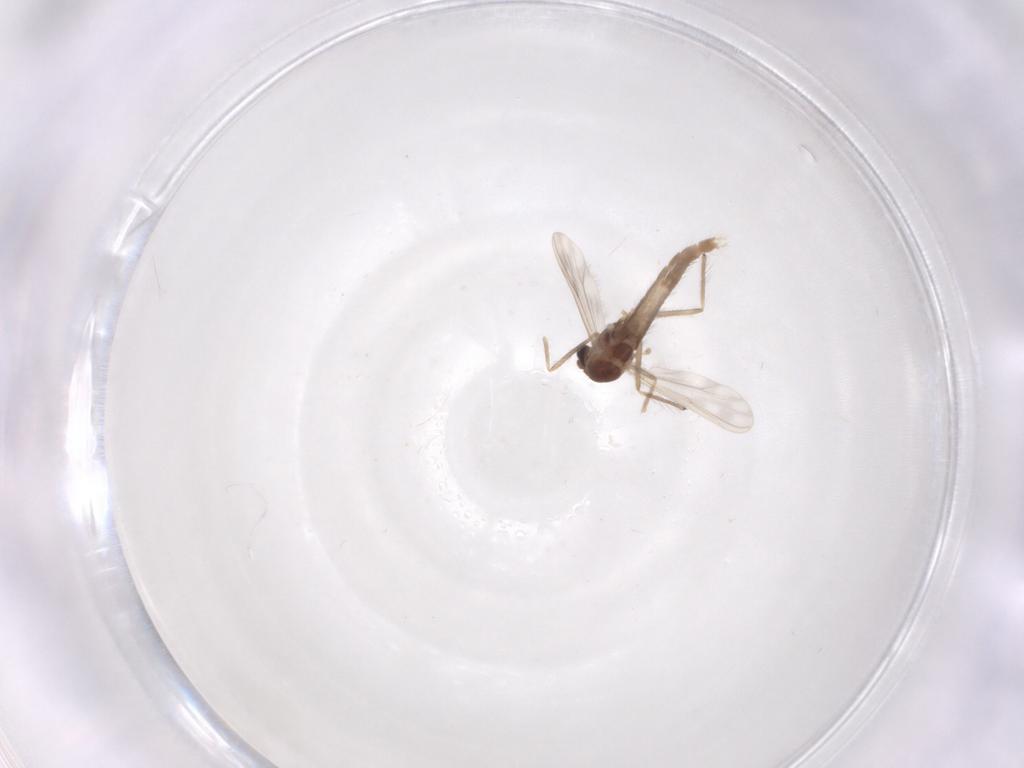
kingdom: Animalia
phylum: Arthropoda
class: Insecta
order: Diptera
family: Chironomidae
